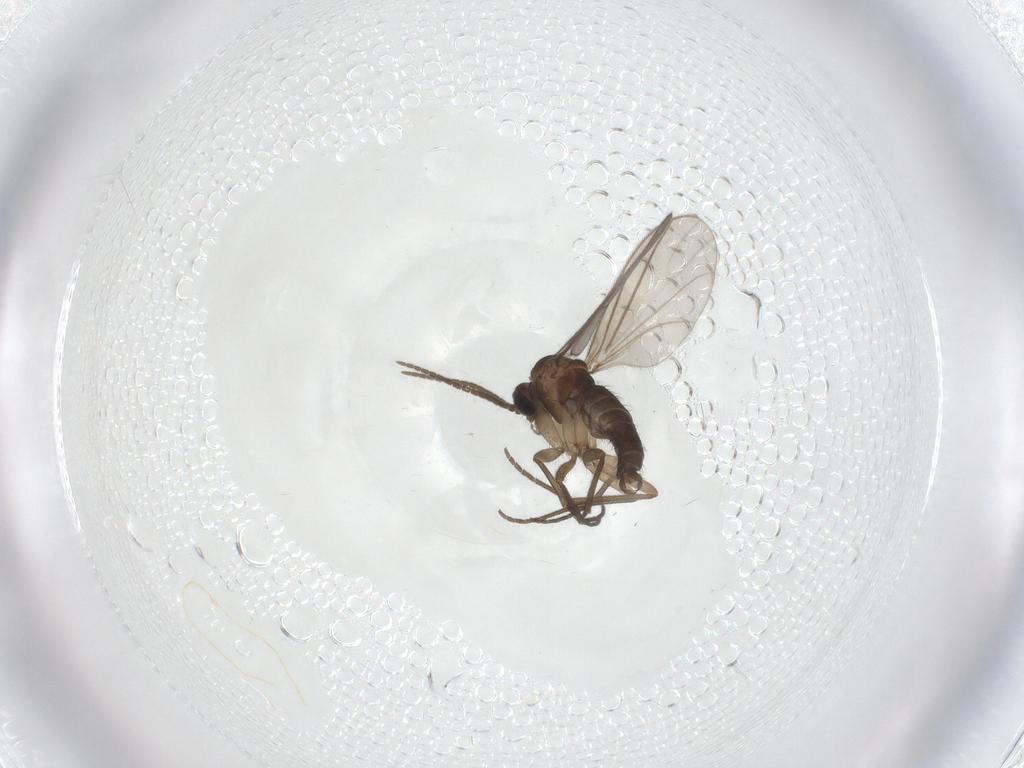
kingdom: Animalia
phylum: Arthropoda
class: Insecta
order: Diptera
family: Sciaridae
